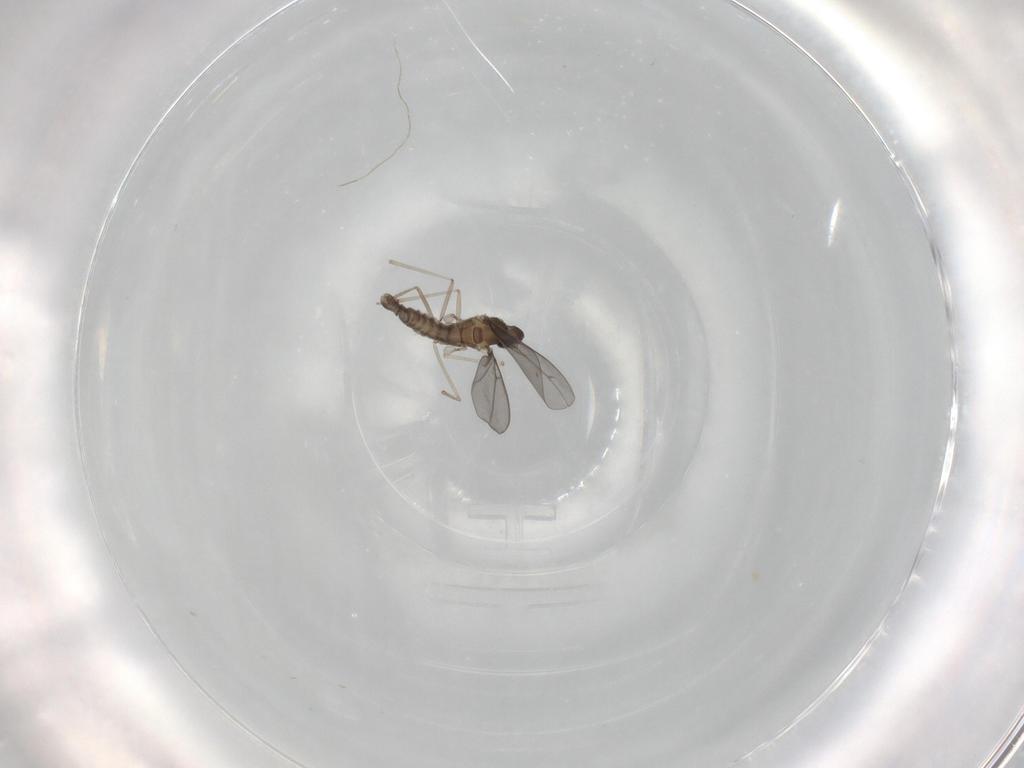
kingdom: Animalia
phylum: Arthropoda
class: Insecta
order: Diptera
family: Cecidomyiidae
